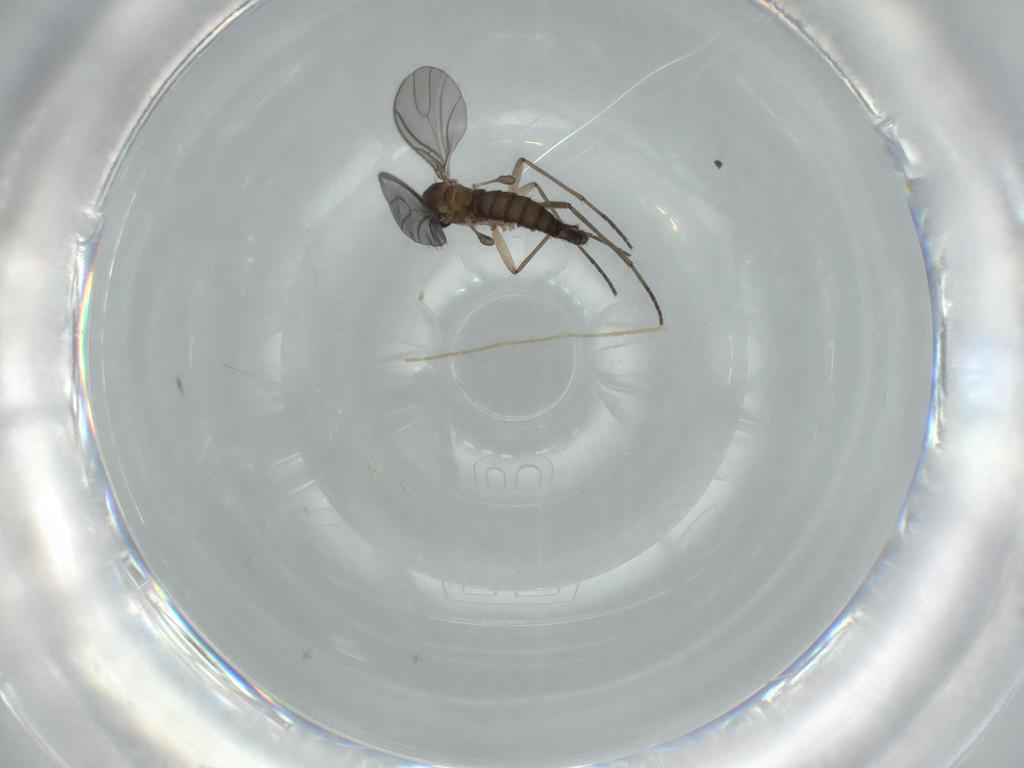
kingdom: Animalia
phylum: Arthropoda
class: Insecta
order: Diptera
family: Sciaridae
